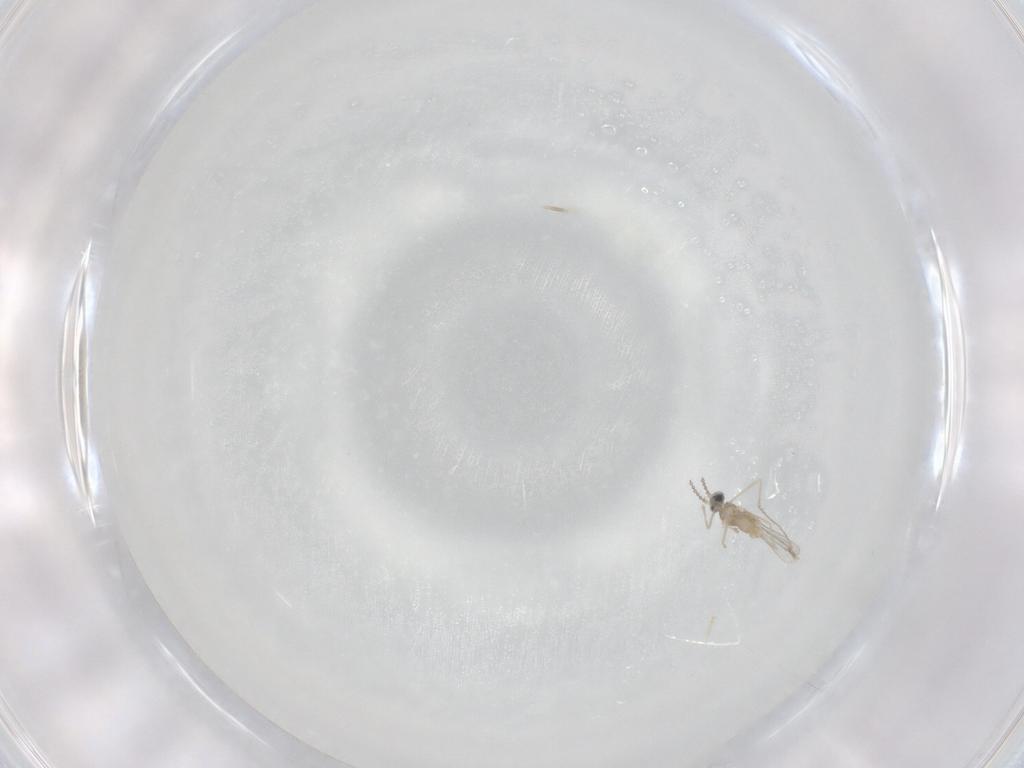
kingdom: Animalia
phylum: Arthropoda
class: Insecta
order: Diptera
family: Cecidomyiidae
